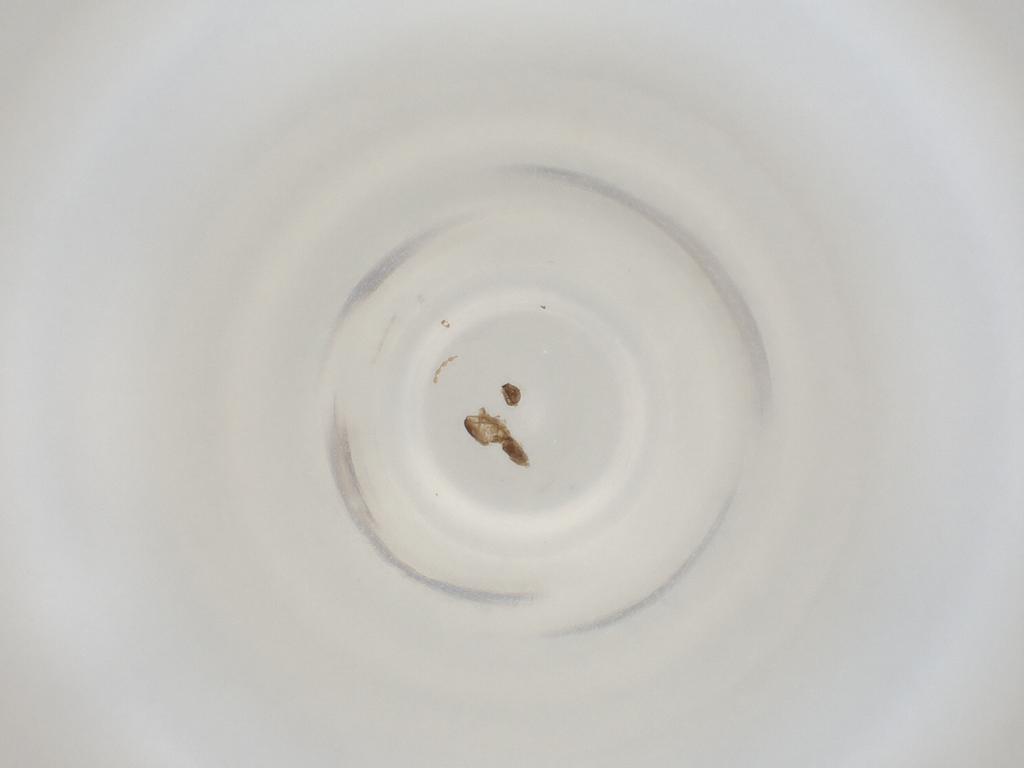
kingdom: Animalia
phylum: Arthropoda
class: Insecta
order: Diptera
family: Cecidomyiidae
